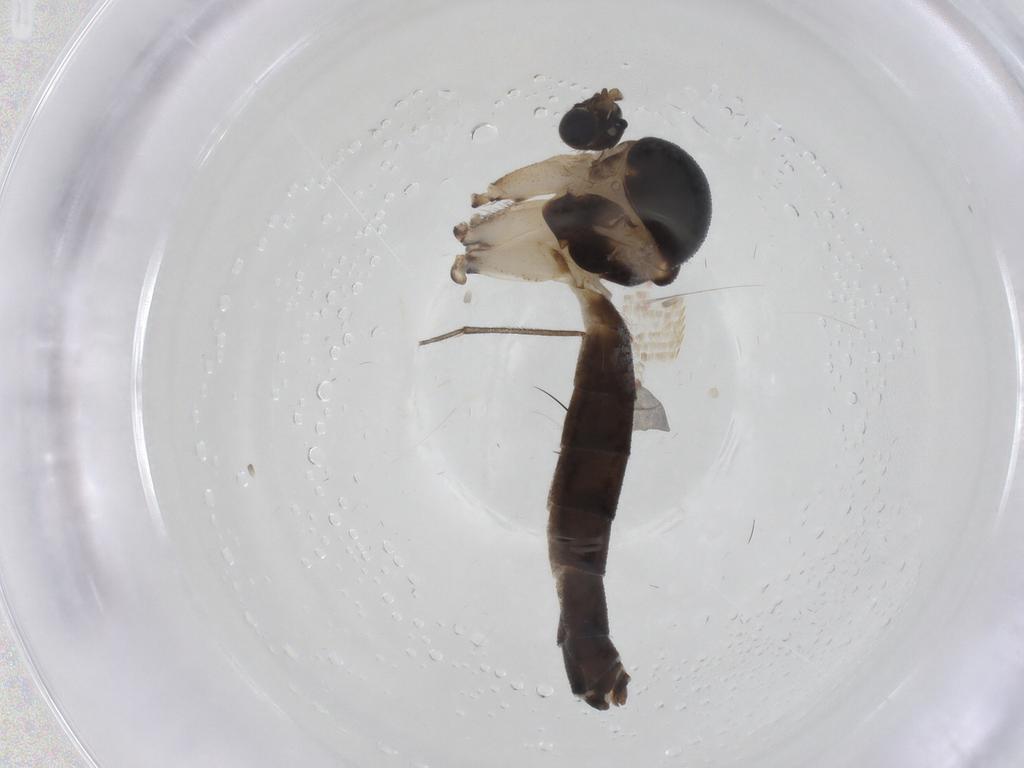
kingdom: Animalia
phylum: Arthropoda
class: Insecta
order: Diptera
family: Mycetophilidae
